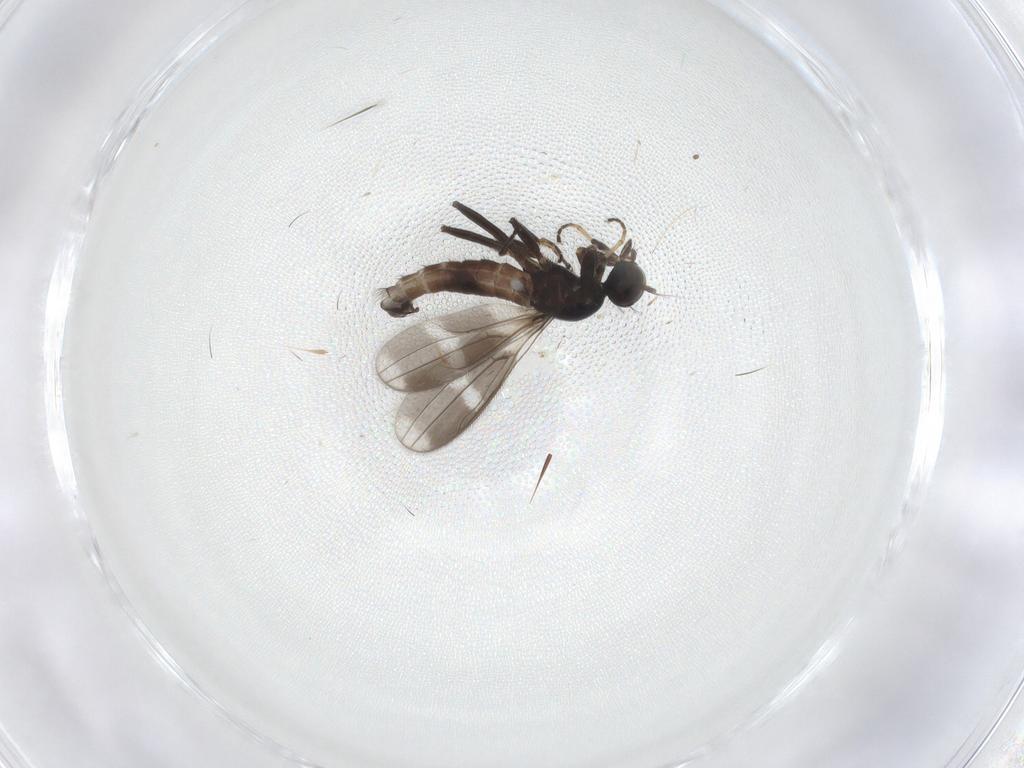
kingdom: Animalia
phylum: Arthropoda
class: Insecta
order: Diptera
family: Hybotidae
